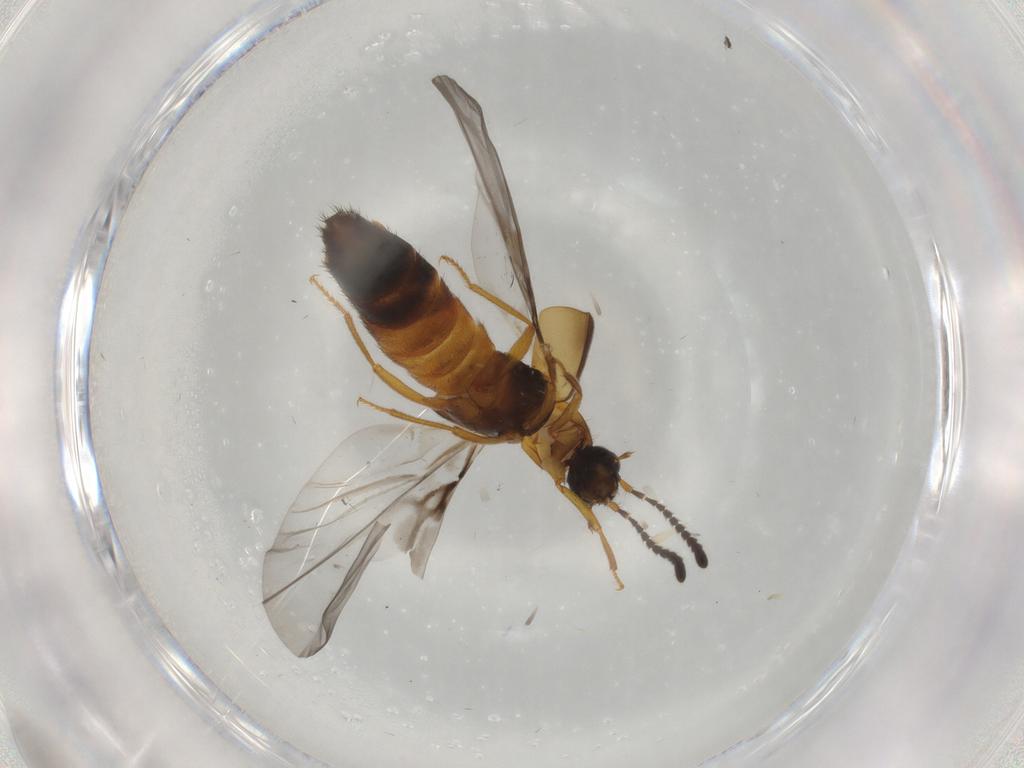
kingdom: Animalia
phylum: Arthropoda
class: Insecta
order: Coleoptera
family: Staphylinidae
